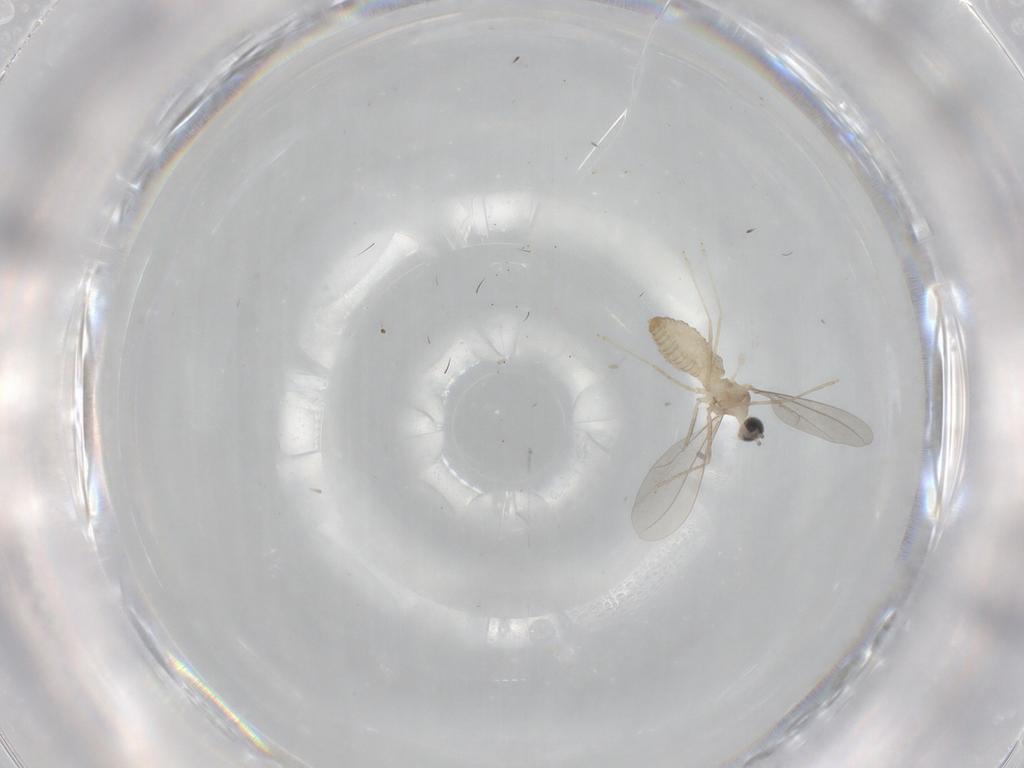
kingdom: Animalia
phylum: Arthropoda
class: Insecta
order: Diptera
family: Cecidomyiidae
